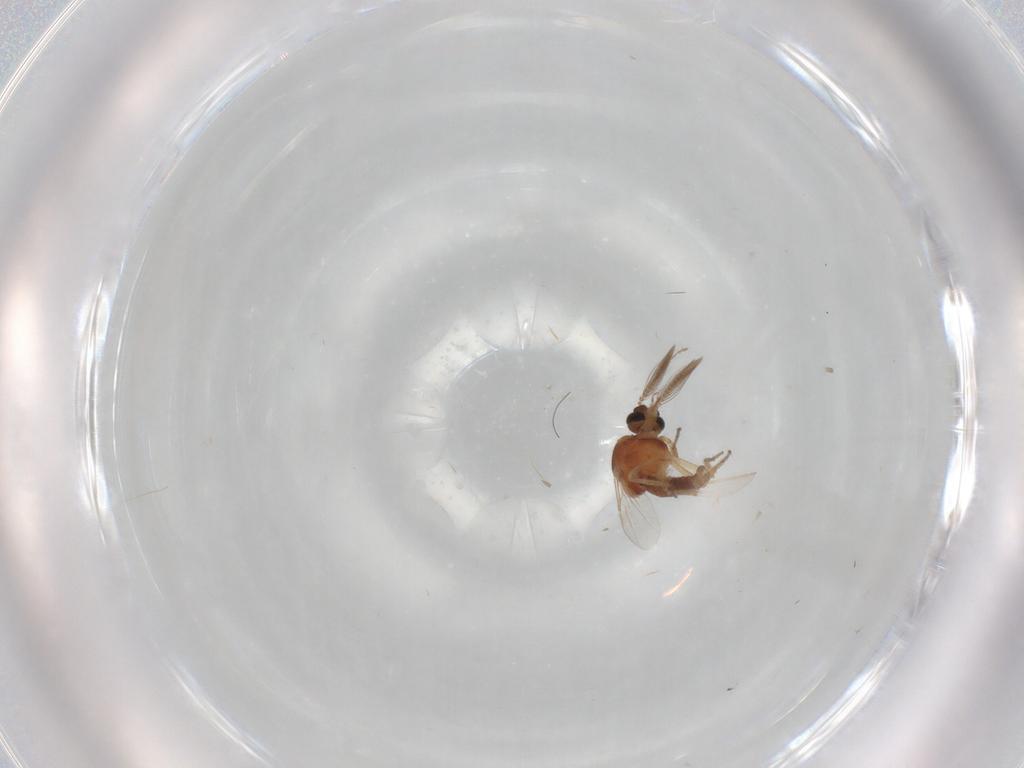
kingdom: Animalia
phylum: Arthropoda
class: Insecta
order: Diptera
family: Ceratopogonidae
